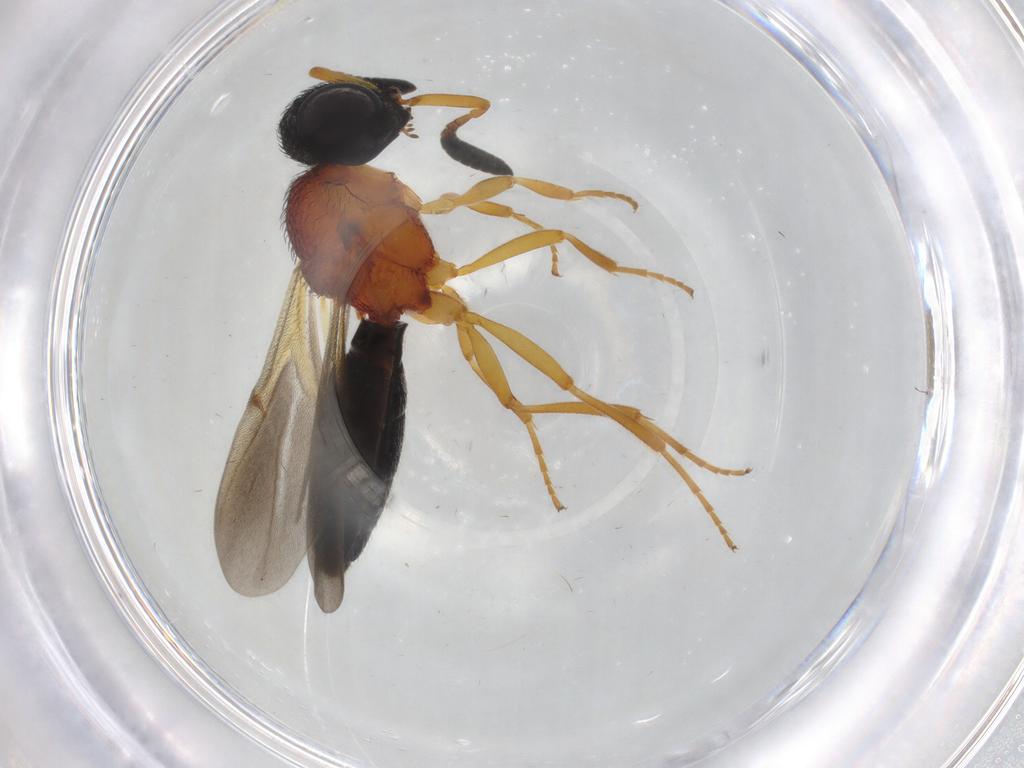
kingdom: Animalia
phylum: Arthropoda
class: Insecta
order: Hymenoptera
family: Scelionidae
